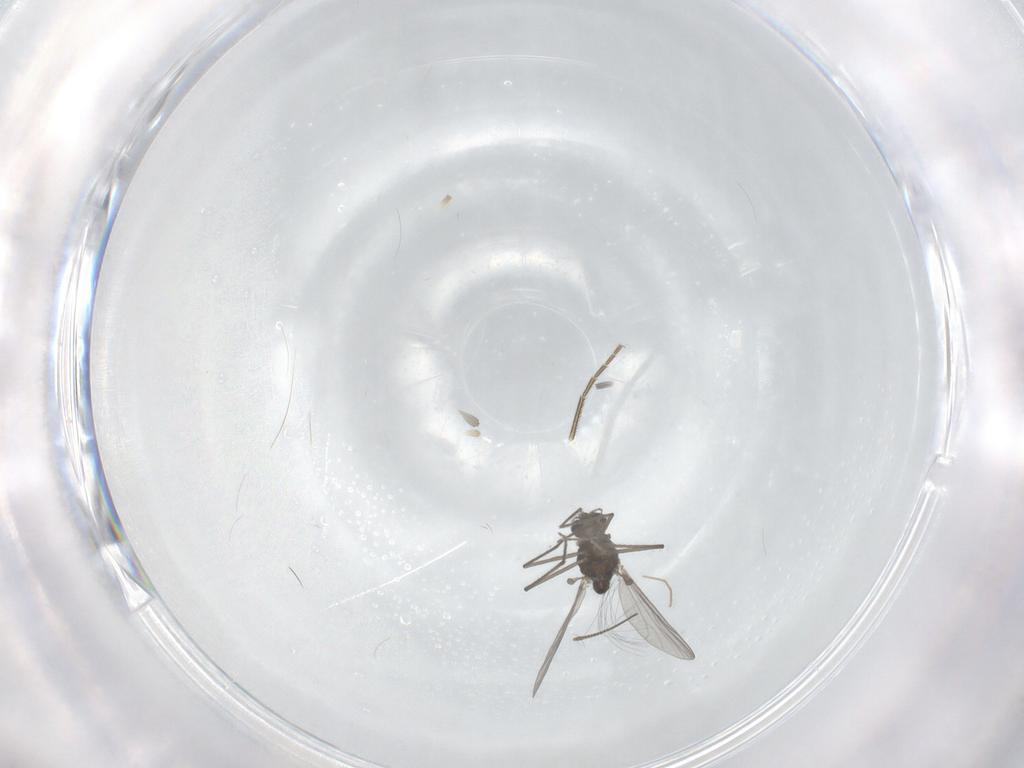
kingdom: Animalia
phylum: Arthropoda
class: Insecta
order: Diptera
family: Chironomidae
